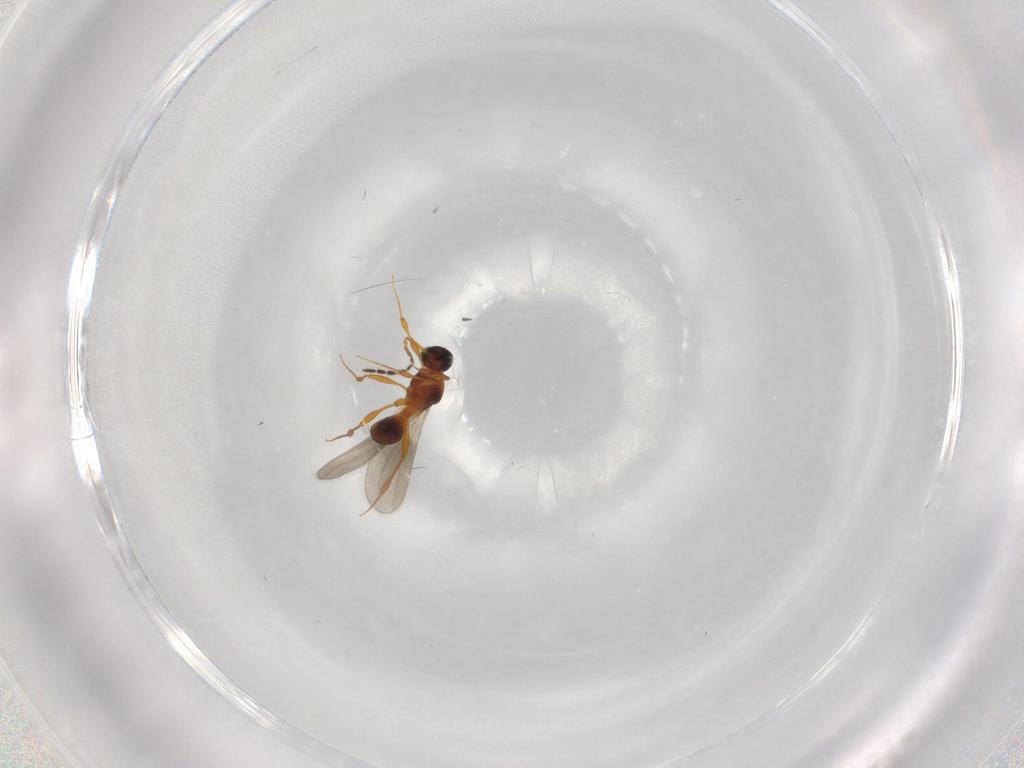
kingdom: Animalia
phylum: Arthropoda
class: Insecta
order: Hymenoptera
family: Platygastridae
